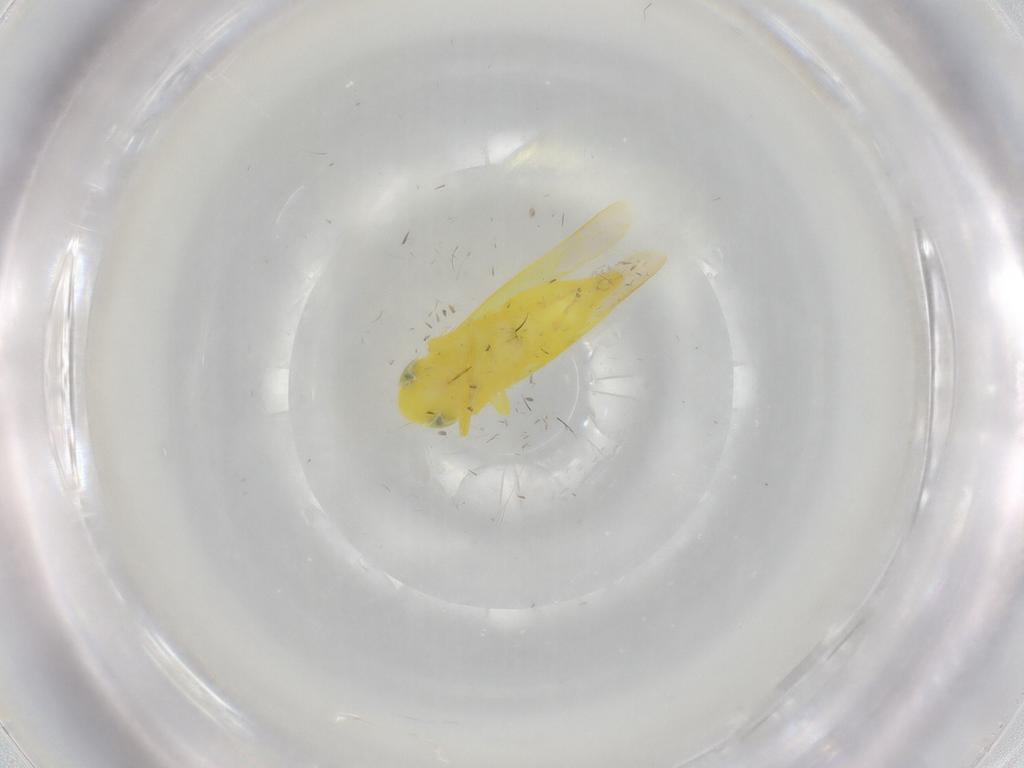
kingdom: Animalia
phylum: Arthropoda
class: Insecta
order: Hemiptera
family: Cicadellidae
